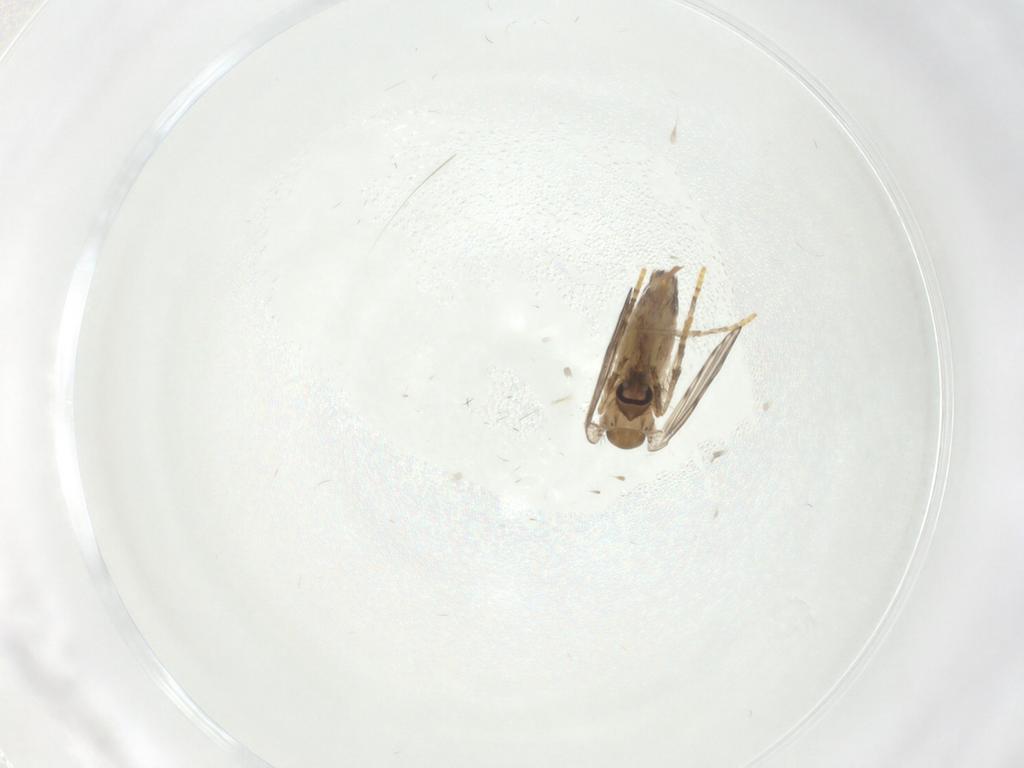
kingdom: Animalia
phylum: Arthropoda
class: Insecta
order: Diptera
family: Psychodidae
